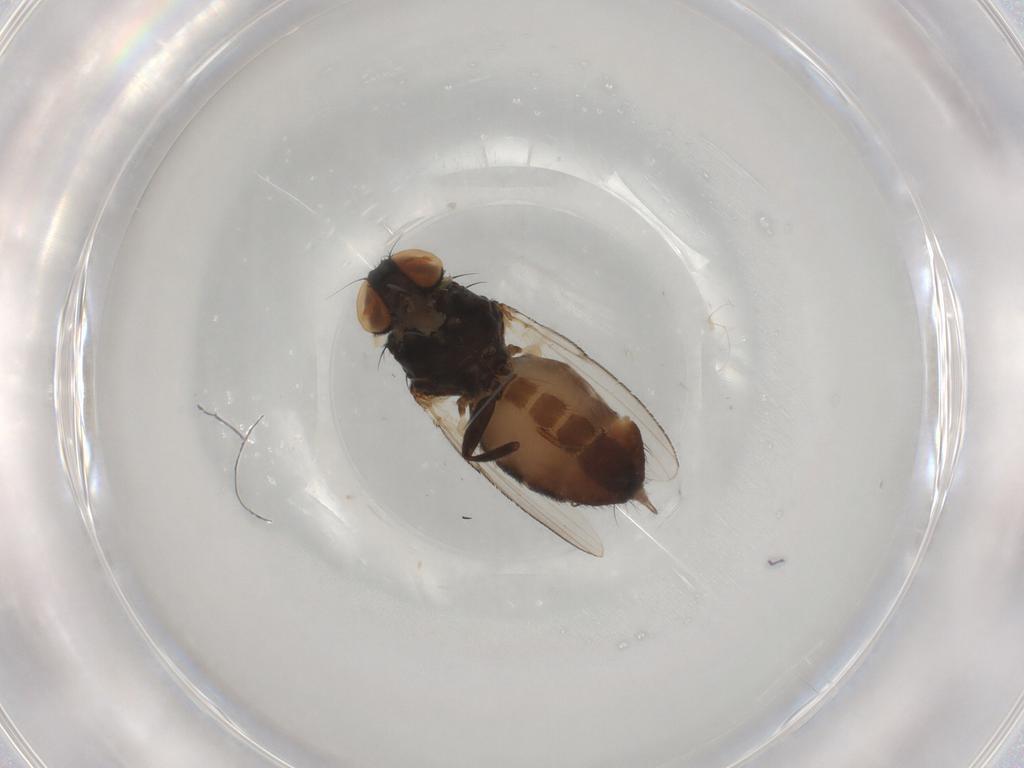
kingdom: Animalia
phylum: Arthropoda
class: Insecta
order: Diptera
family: Milichiidae
